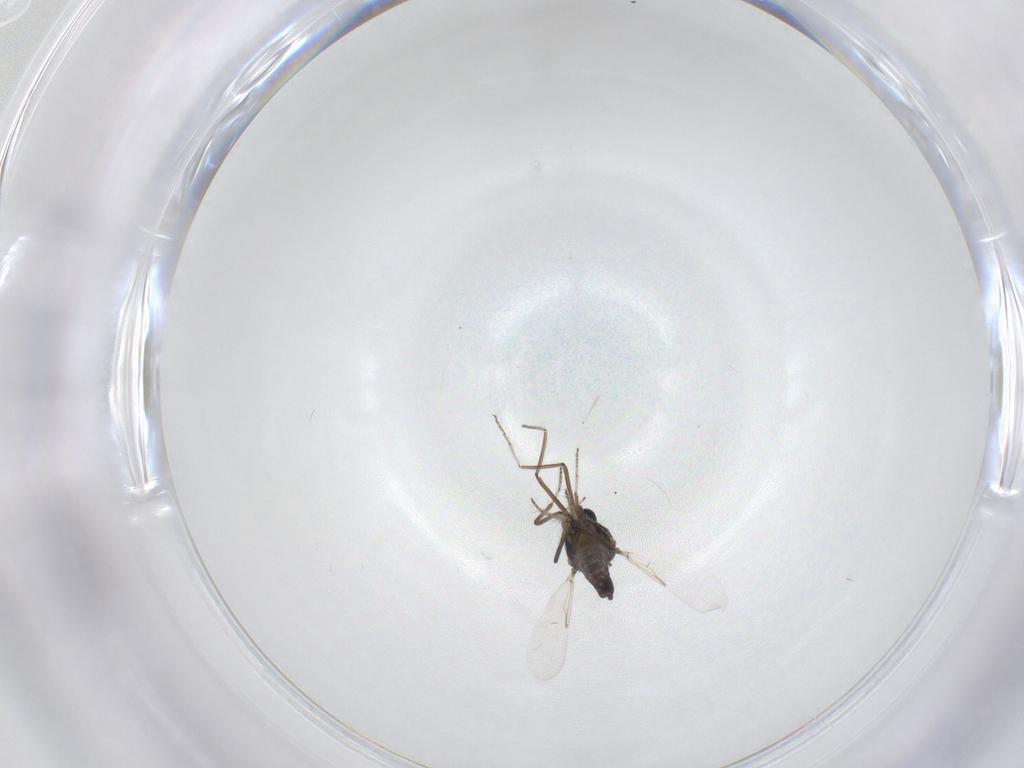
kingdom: Animalia
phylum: Arthropoda
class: Insecta
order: Diptera
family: Ceratopogonidae
